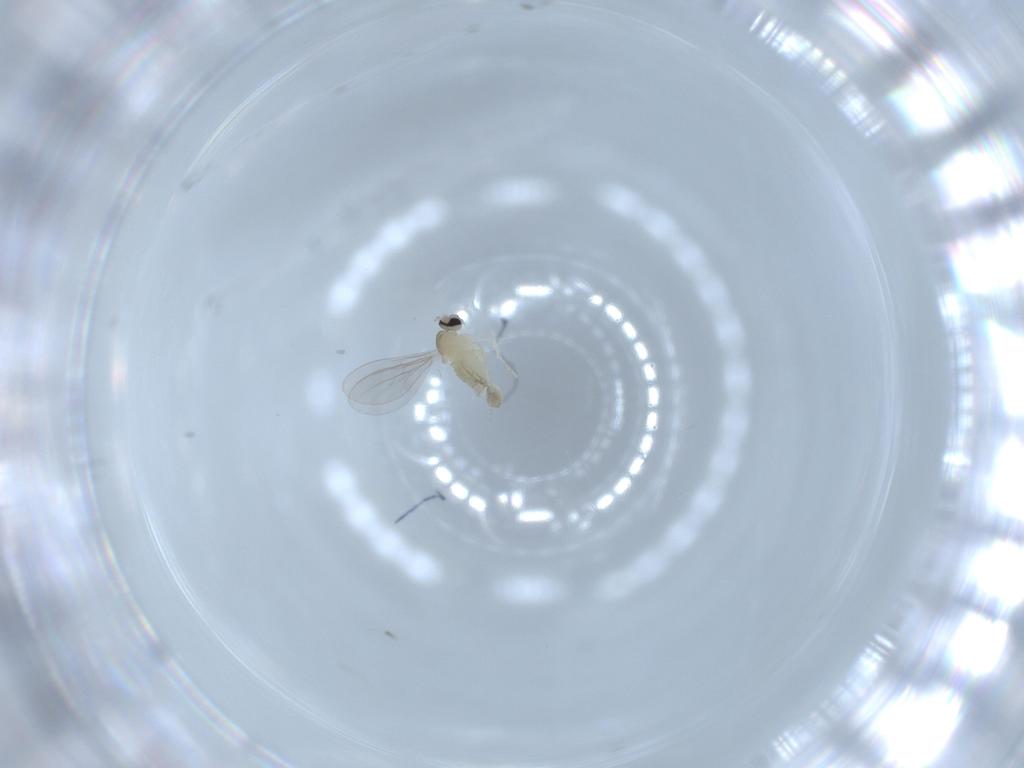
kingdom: Animalia
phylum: Arthropoda
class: Insecta
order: Diptera
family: Cecidomyiidae
